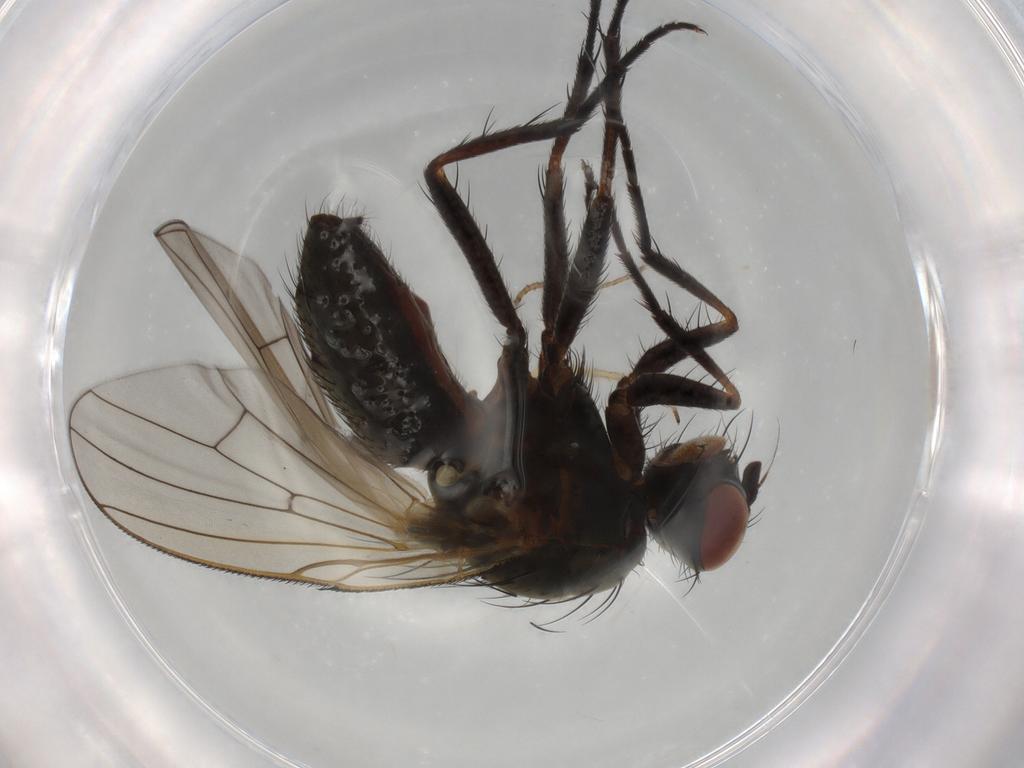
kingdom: Animalia
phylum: Arthropoda
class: Insecta
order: Diptera
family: Anthomyiidae
